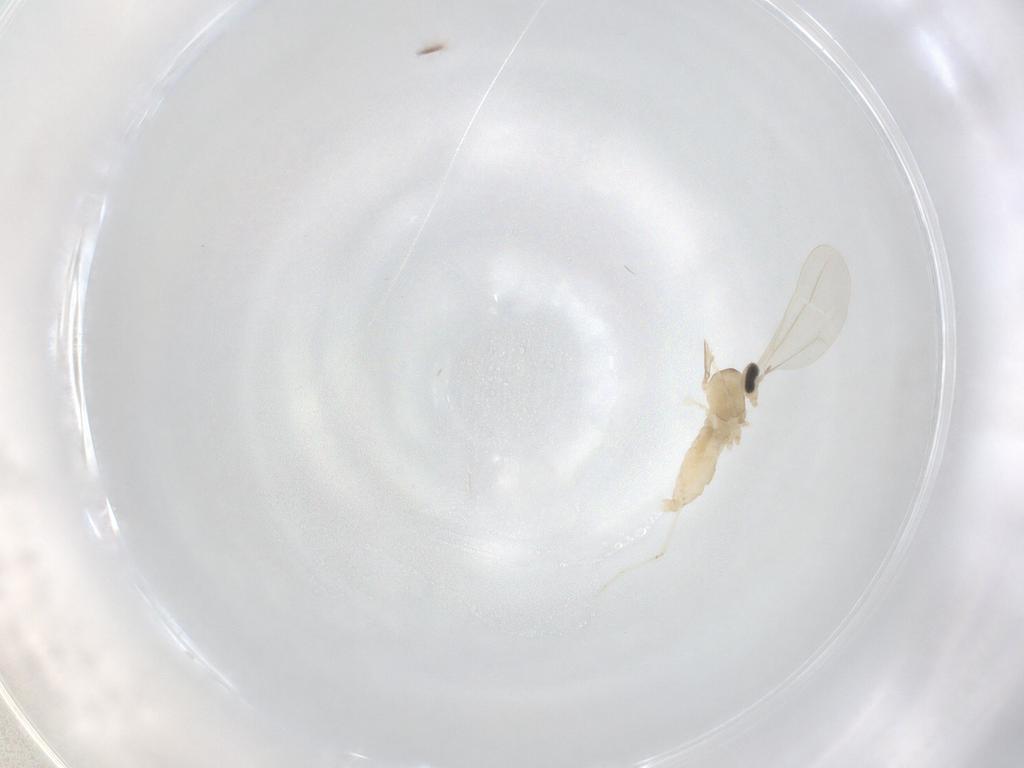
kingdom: Animalia
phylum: Arthropoda
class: Insecta
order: Diptera
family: Cecidomyiidae
